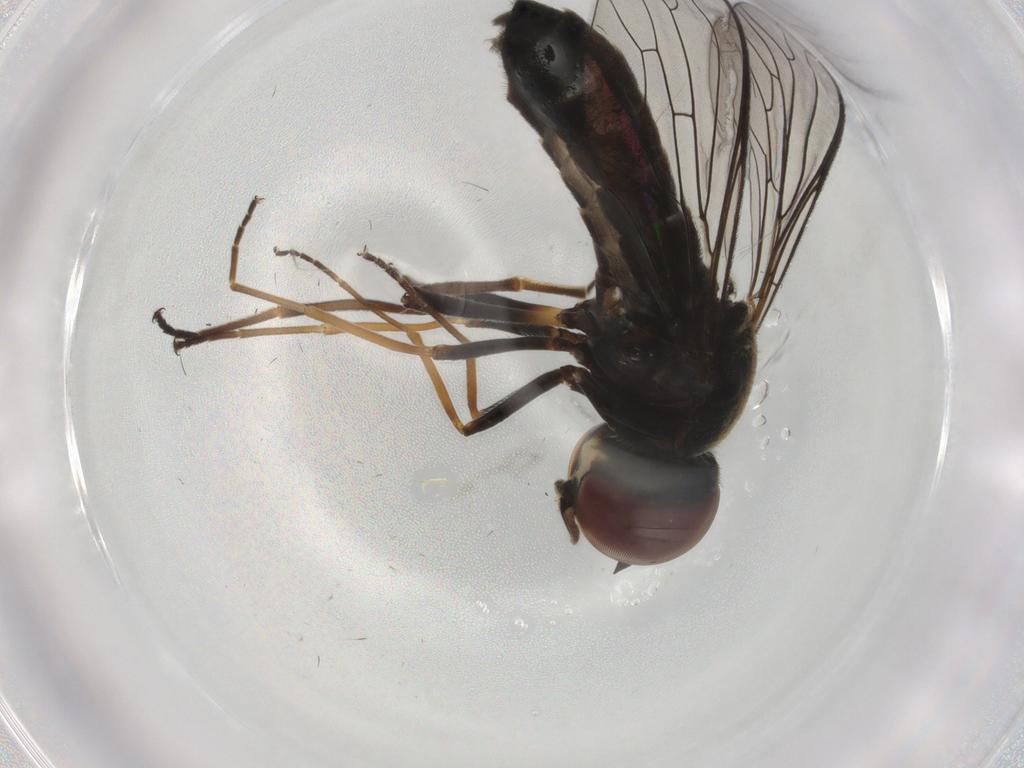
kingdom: Animalia
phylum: Arthropoda
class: Insecta
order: Diptera
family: Bombyliidae
